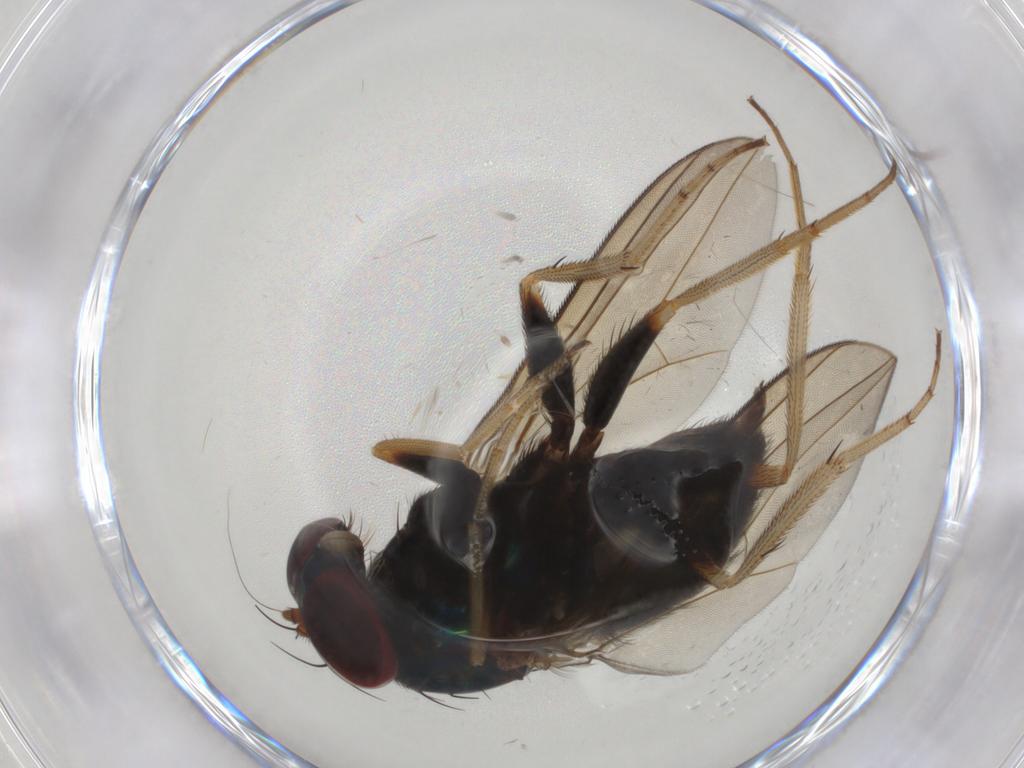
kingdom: Animalia
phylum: Arthropoda
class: Insecta
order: Diptera
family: Dolichopodidae
